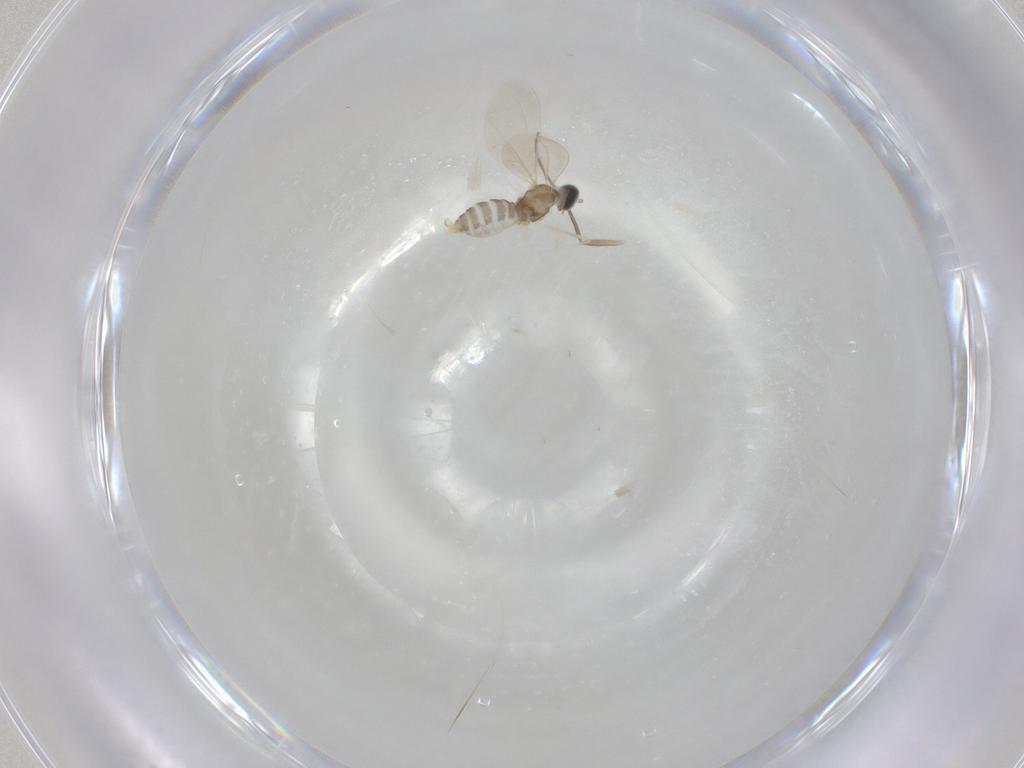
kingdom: Animalia
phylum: Arthropoda
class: Insecta
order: Diptera
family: Cecidomyiidae
